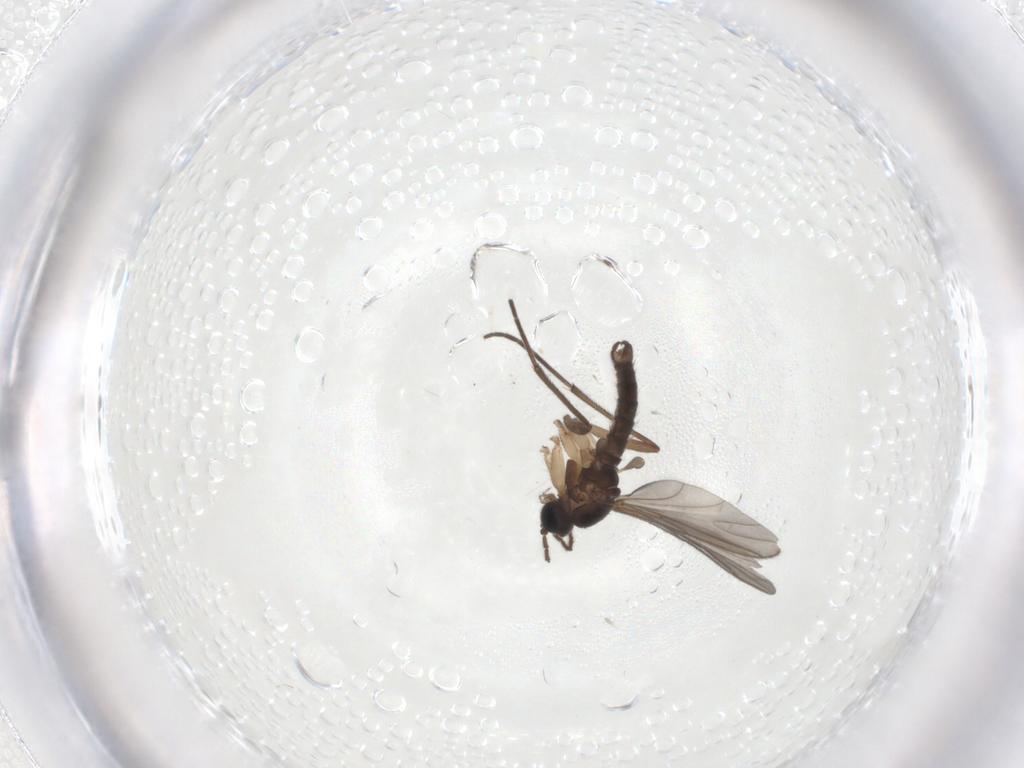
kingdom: Animalia
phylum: Arthropoda
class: Insecta
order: Diptera
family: Sciaridae
